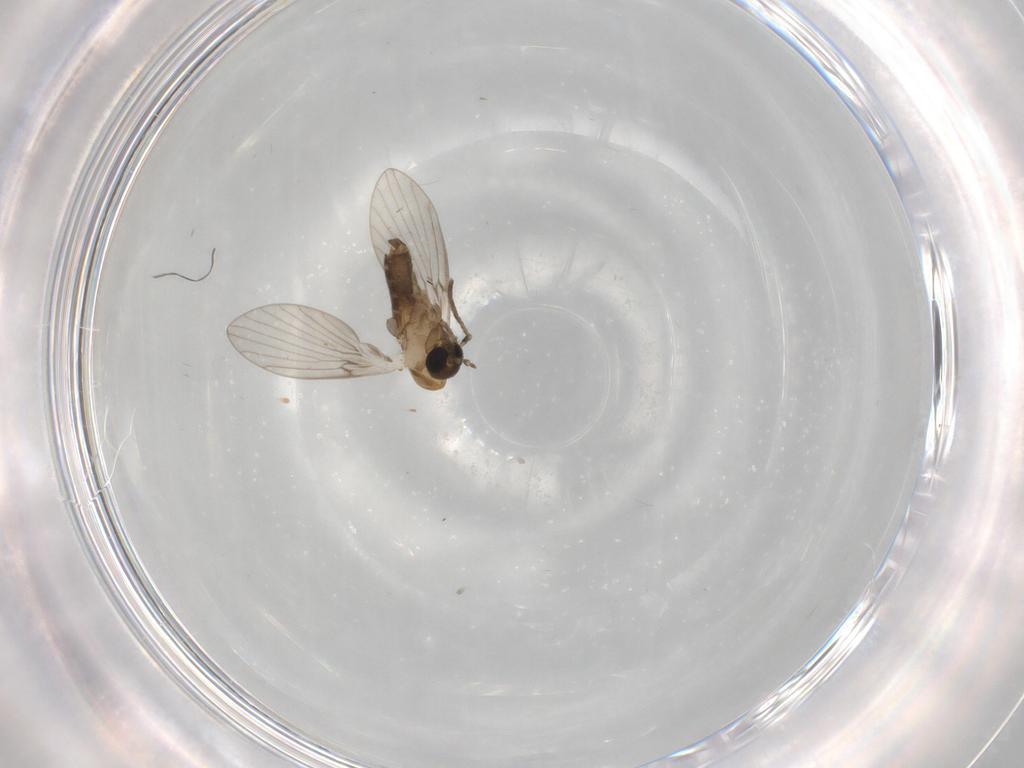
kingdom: Animalia
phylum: Arthropoda
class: Insecta
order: Diptera
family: Psychodidae
